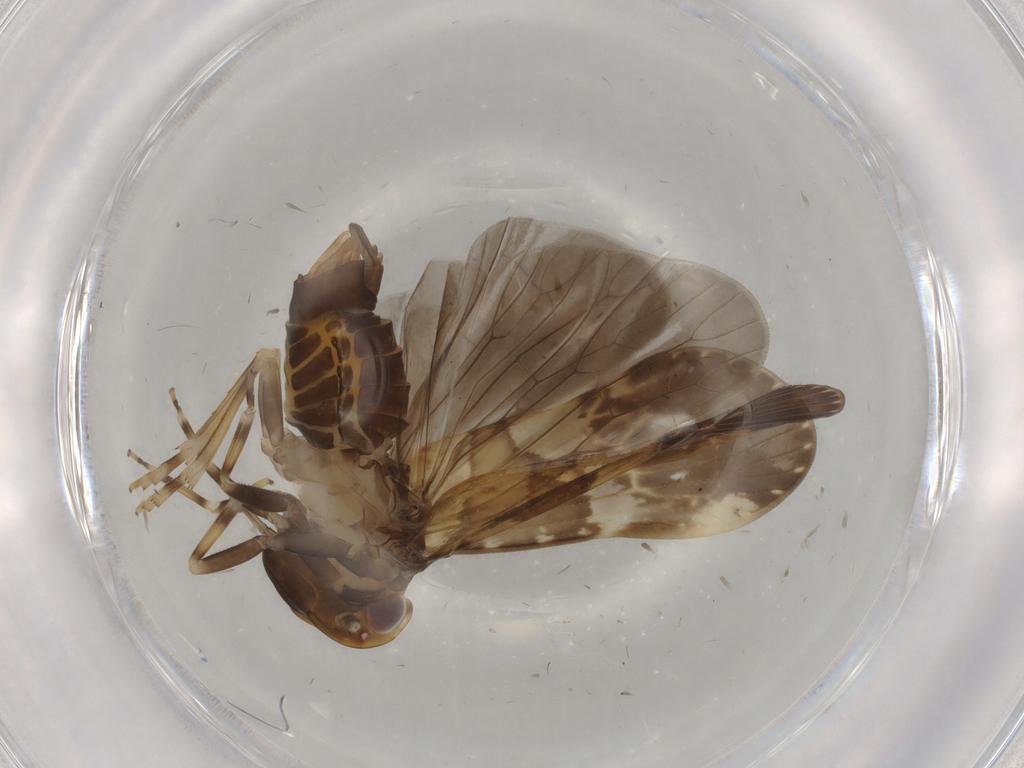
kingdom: Animalia
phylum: Arthropoda
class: Insecta
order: Hemiptera
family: Cixiidae
